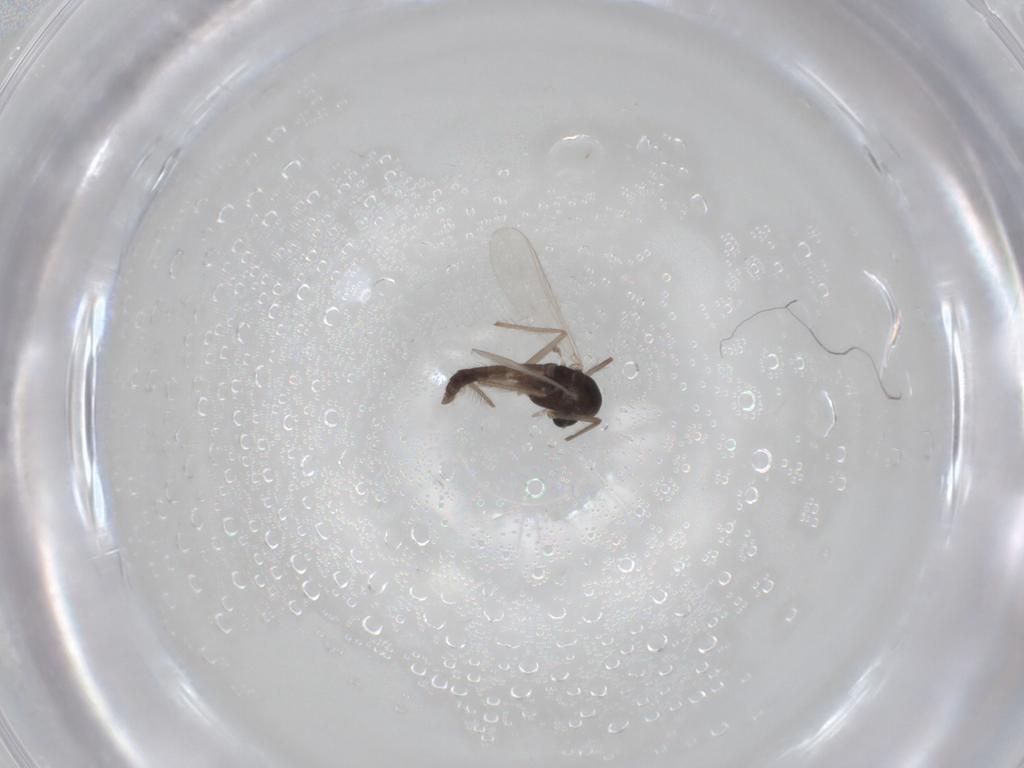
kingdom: Animalia
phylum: Arthropoda
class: Insecta
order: Diptera
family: Chironomidae
